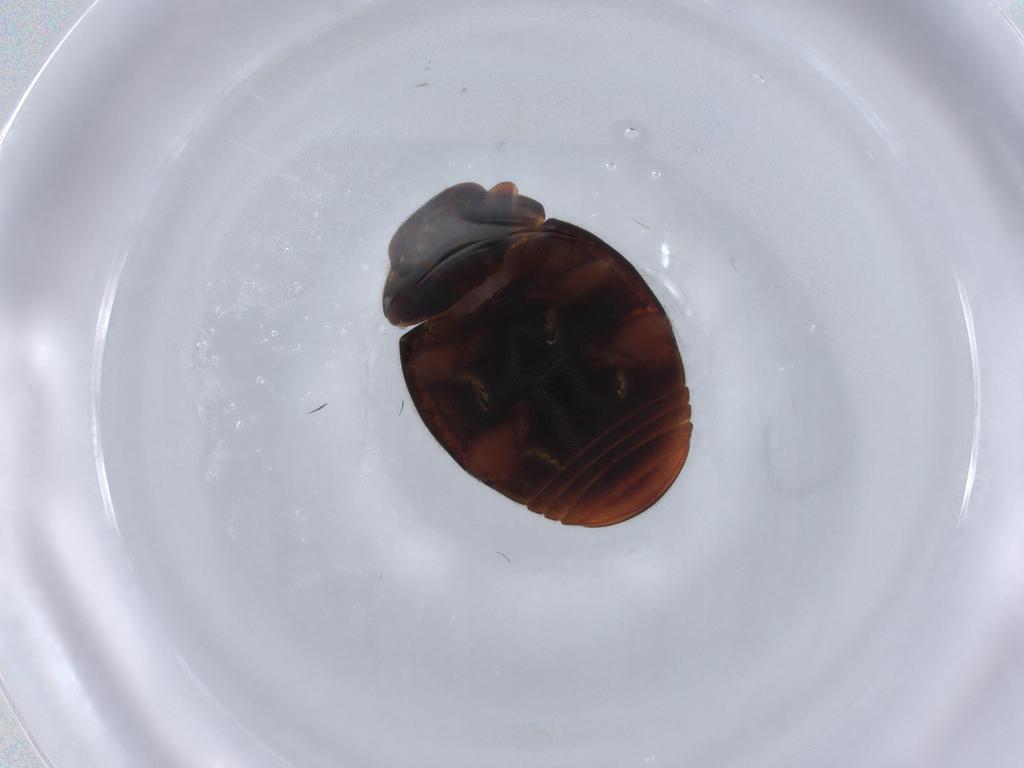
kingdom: Animalia
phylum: Arthropoda
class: Insecta
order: Coleoptera
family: Coccinellidae
